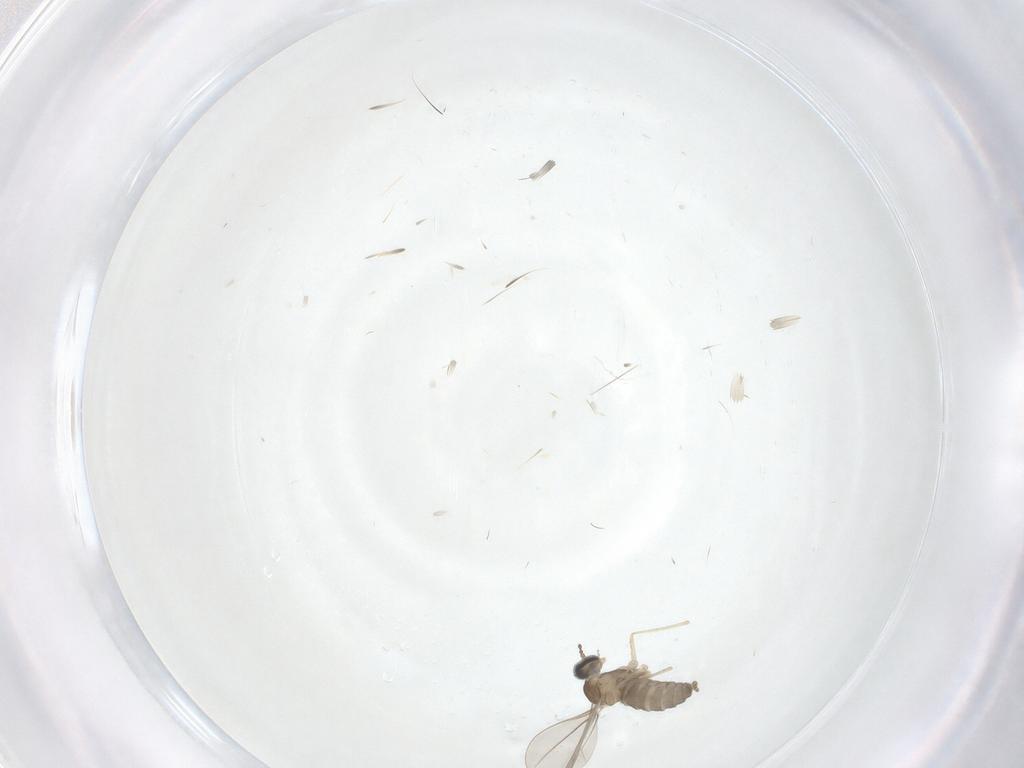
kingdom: Animalia
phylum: Arthropoda
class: Insecta
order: Diptera
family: Cecidomyiidae
